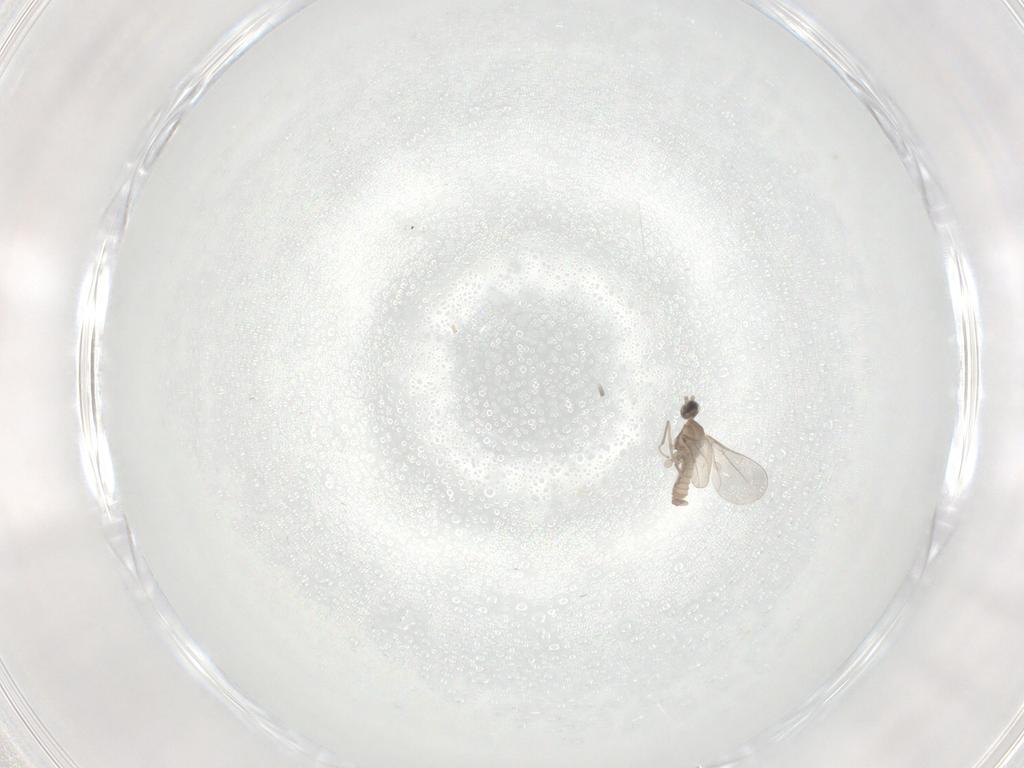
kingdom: Animalia
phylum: Arthropoda
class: Insecta
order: Diptera
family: Cecidomyiidae
